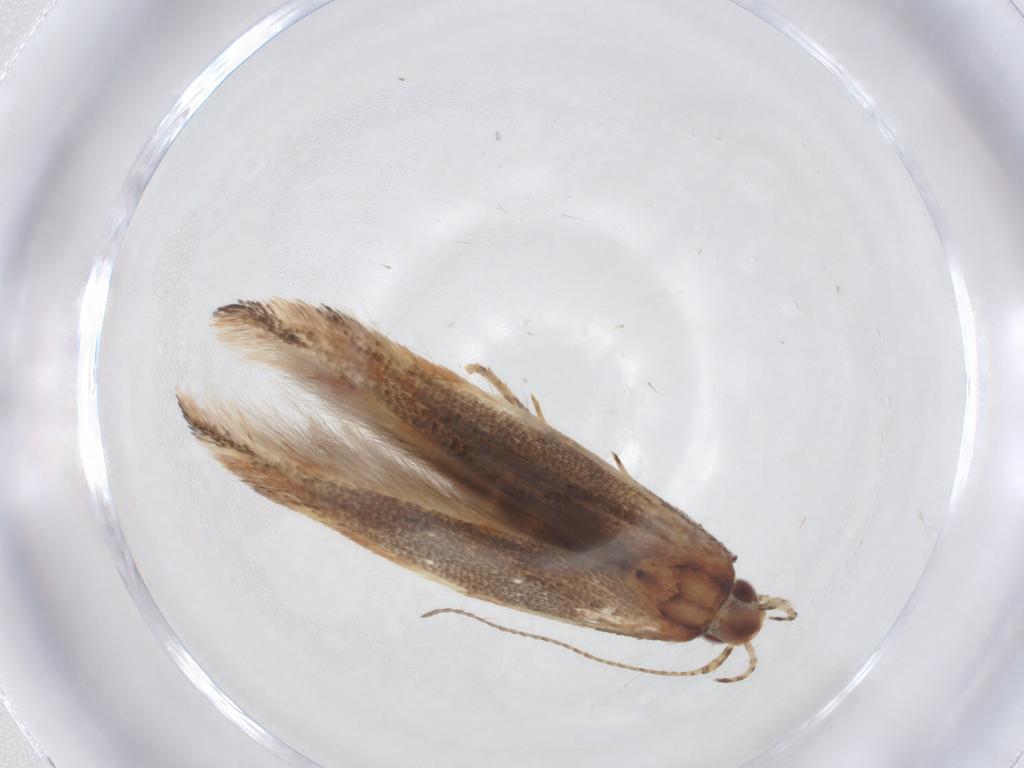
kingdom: Animalia
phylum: Arthropoda
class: Insecta
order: Lepidoptera
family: Cosmopterigidae
